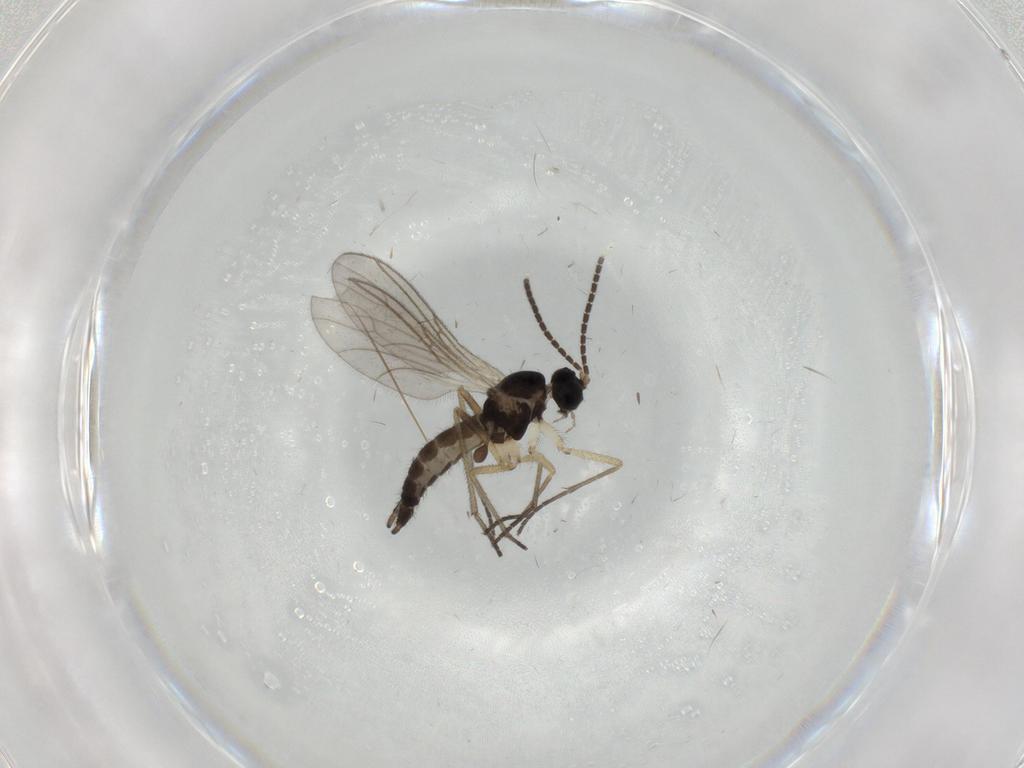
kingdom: Animalia
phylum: Arthropoda
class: Insecta
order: Diptera
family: Sciaridae
